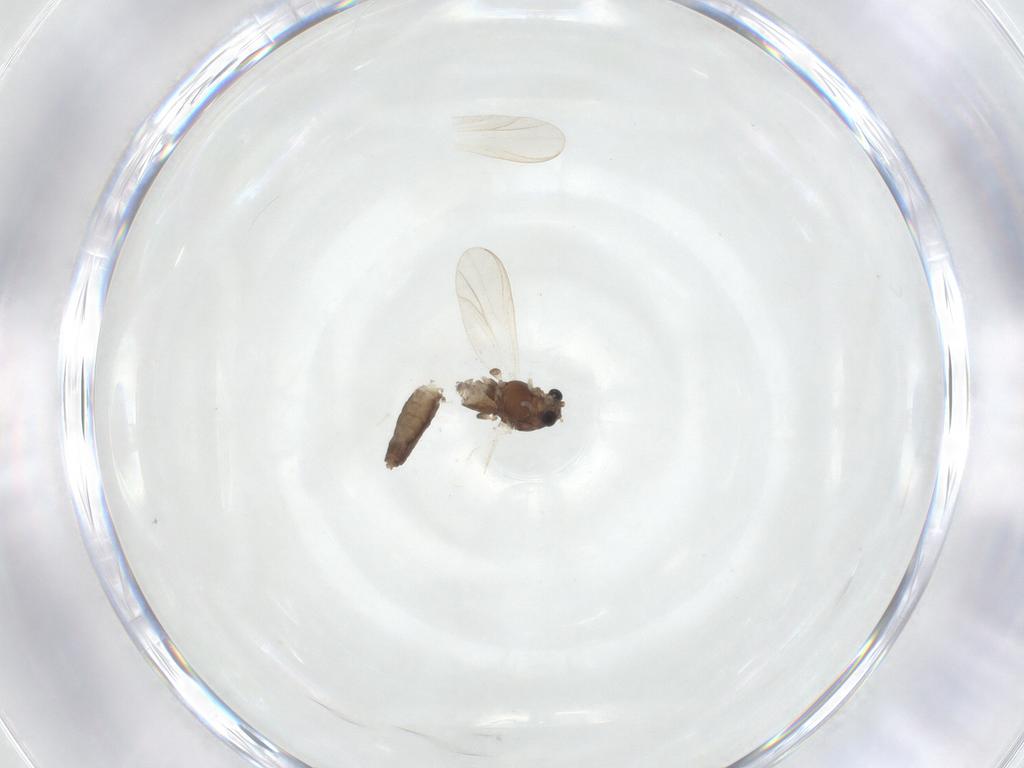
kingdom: Animalia
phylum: Arthropoda
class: Insecta
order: Diptera
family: Chironomidae
